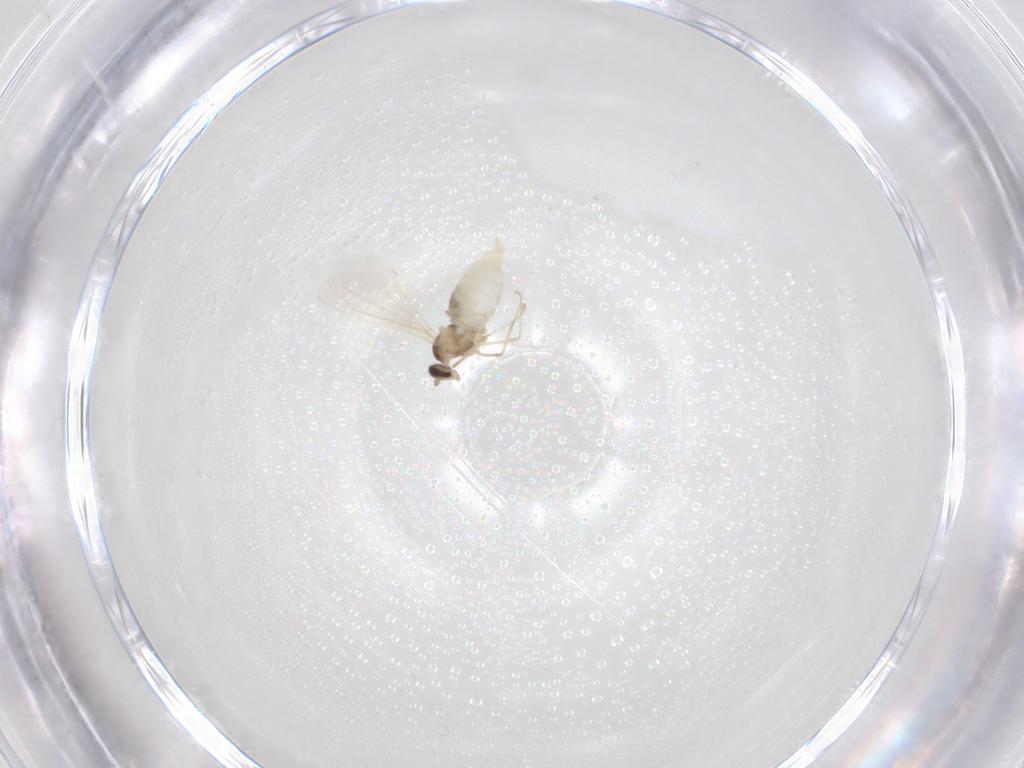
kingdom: Animalia
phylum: Arthropoda
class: Insecta
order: Diptera
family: Cecidomyiidae
